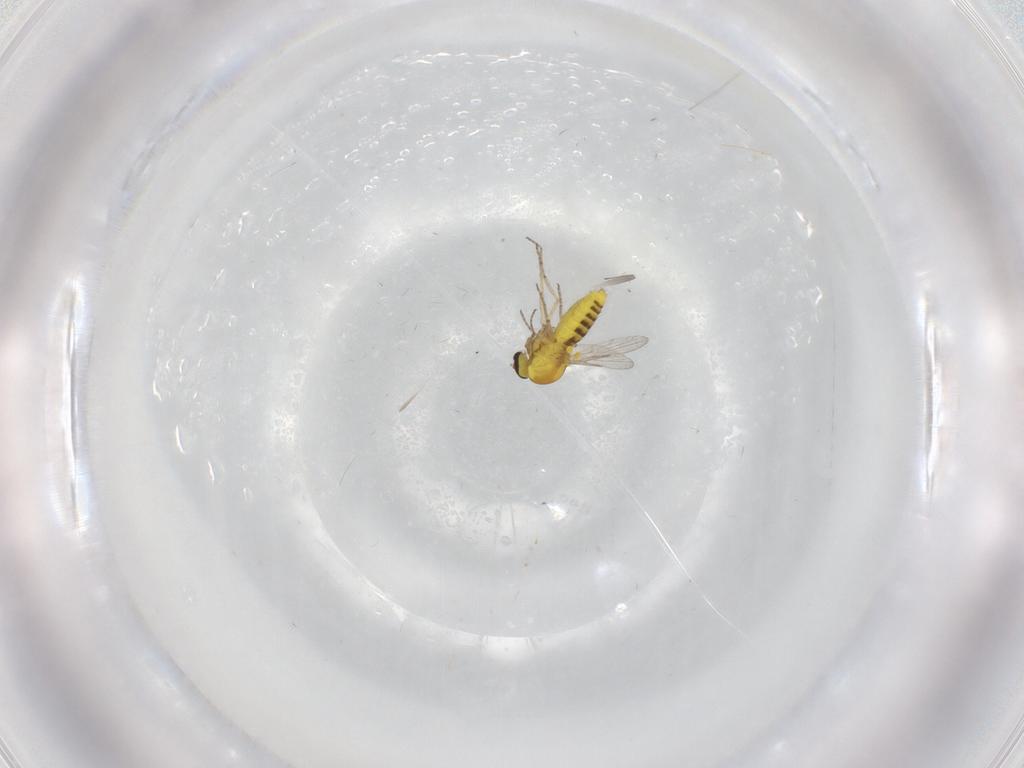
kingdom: Animalia
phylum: Arthropoda
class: Insecta
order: Diptera
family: Ceratopogonidae
